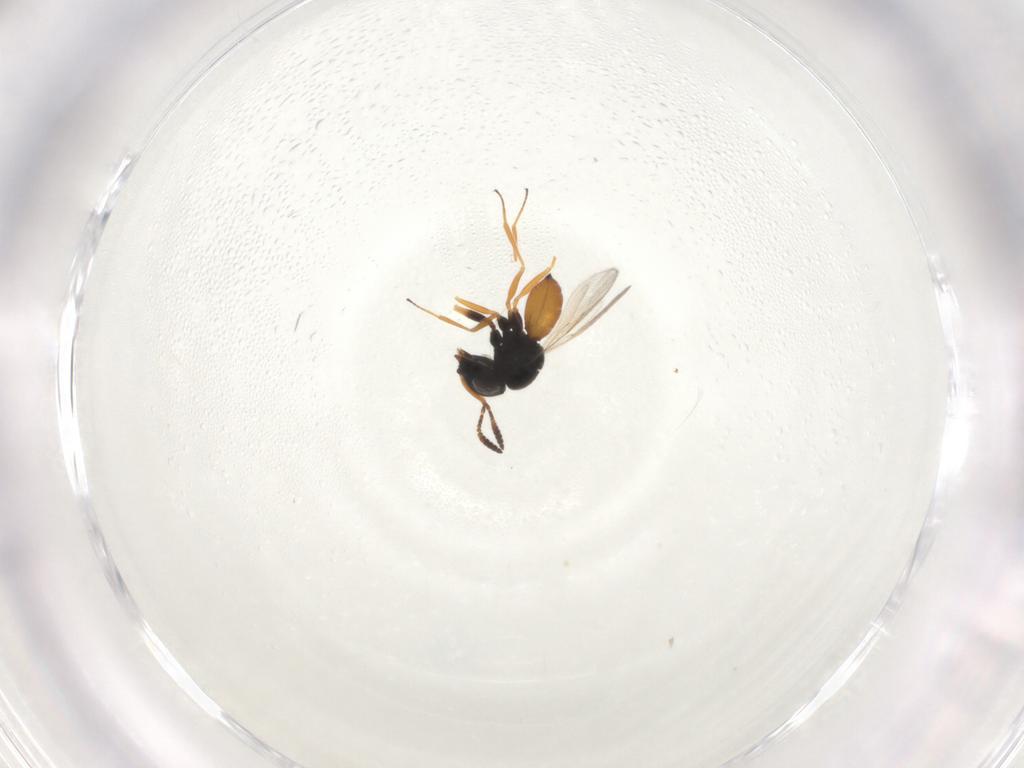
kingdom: Animalia
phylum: Arthropoda
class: Insecta
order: Hymenoptera
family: Scelionidae
